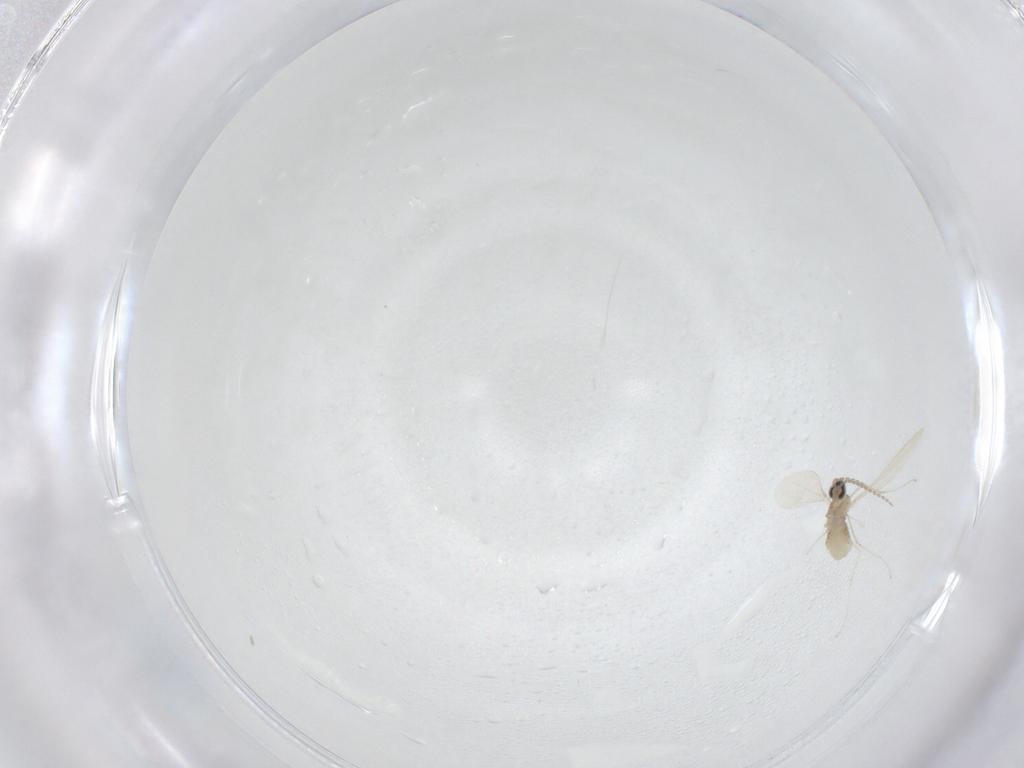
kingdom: Animalia
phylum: Arthropoda
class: Insecta
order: Diptera
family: Cecidomyiidae
